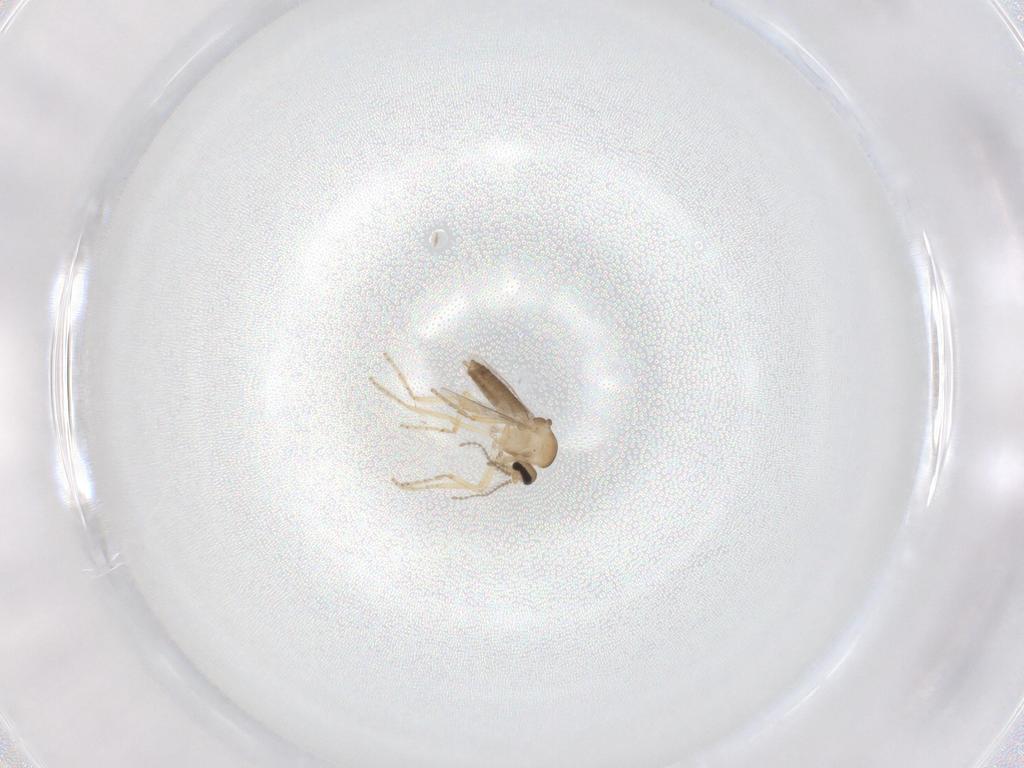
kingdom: Animalia
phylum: Arthropoda
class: Insecta
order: Diptera
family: Ceratopogonidae
